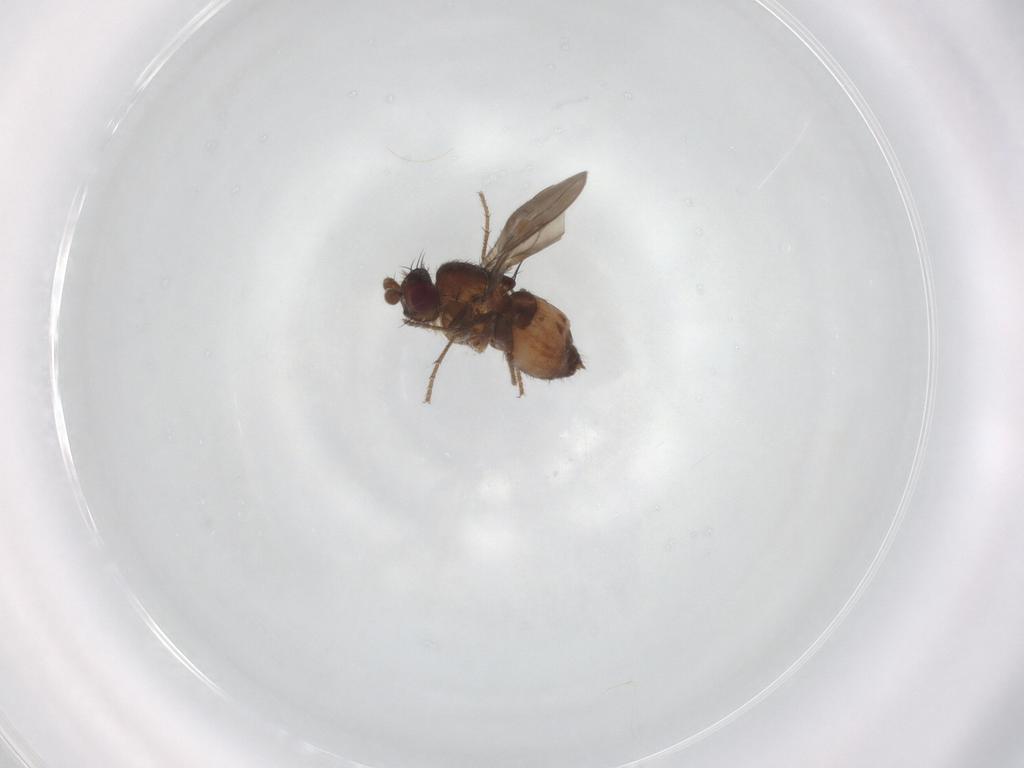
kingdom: Animalia
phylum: Arthropoda
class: Insecta
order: Diptera
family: Sphaeroceridae
